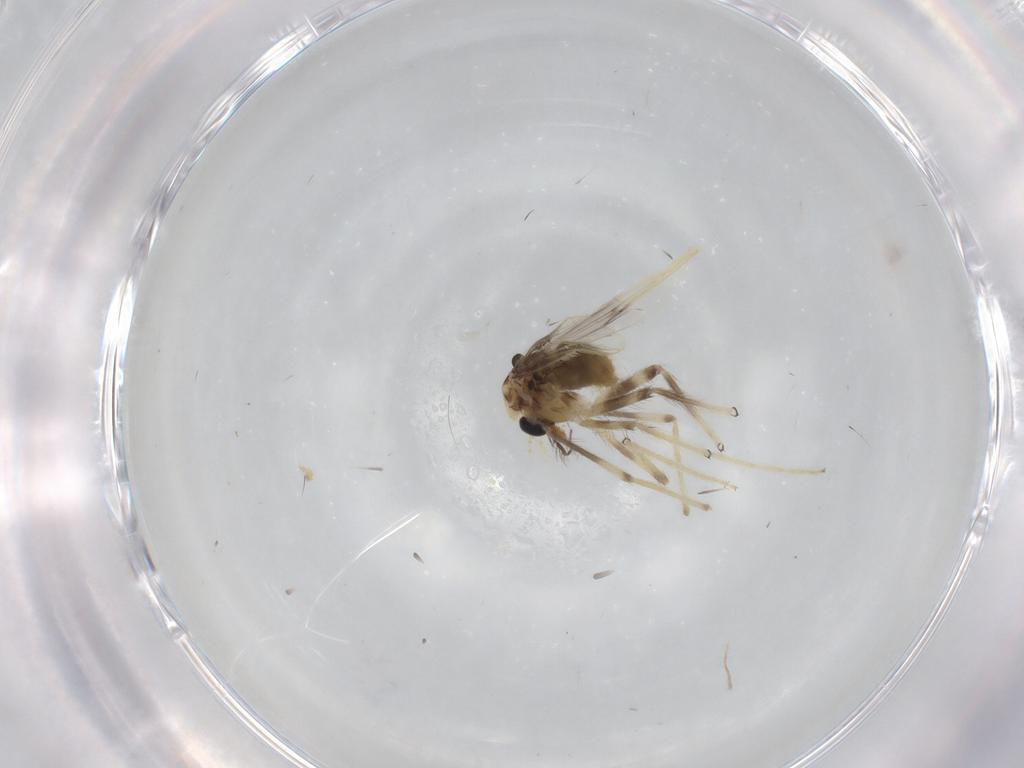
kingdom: Animalia
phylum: Arthropoda
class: Insecta
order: Diptera
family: Chironomidae
